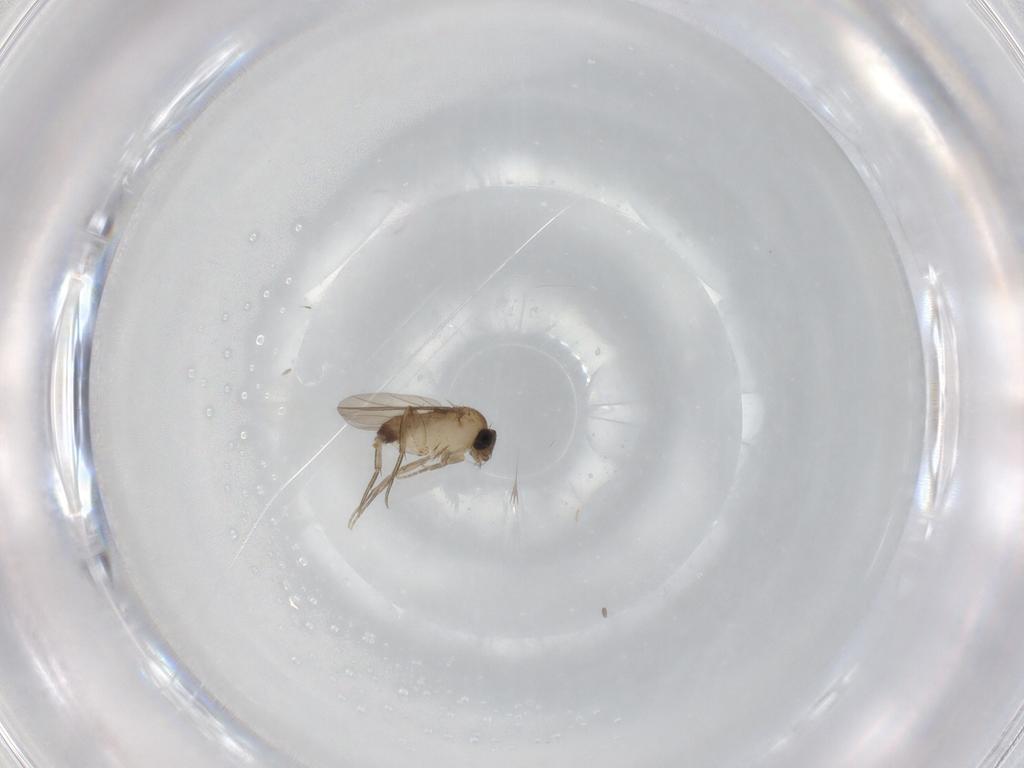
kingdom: Animalia
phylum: Arthropoda
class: Insecta
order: Diptera
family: Phoridae
